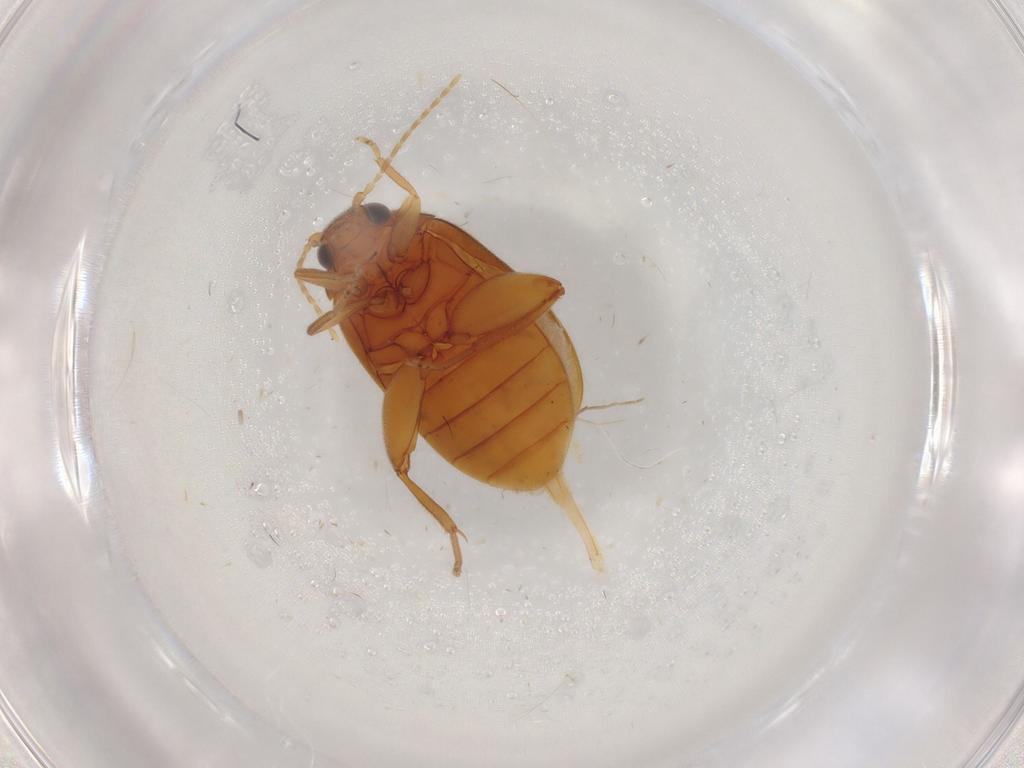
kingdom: Animalia
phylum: Arthropoda
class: Insecta
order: Coleoptera
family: Scirtidae
